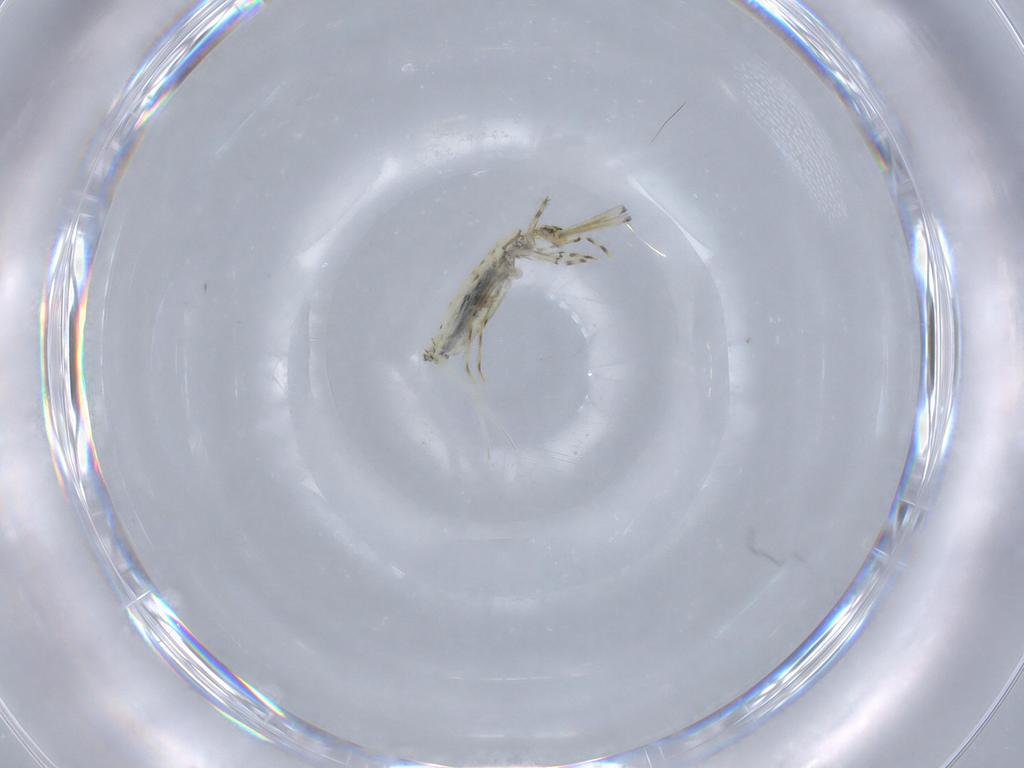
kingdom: Animalia
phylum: Arthropoda
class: Collembola
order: Entomobryomorpha
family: Paronellidae
